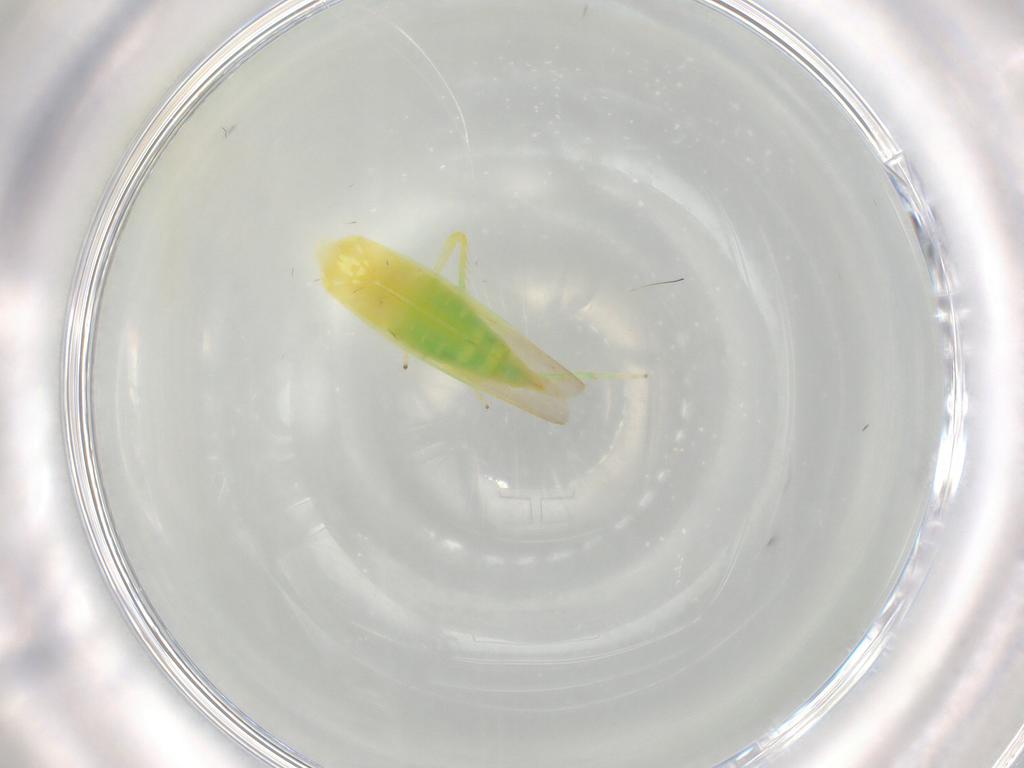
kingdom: Animalia
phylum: Arthropoda
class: Insecta
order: Hemiptera
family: Cicadellidae
